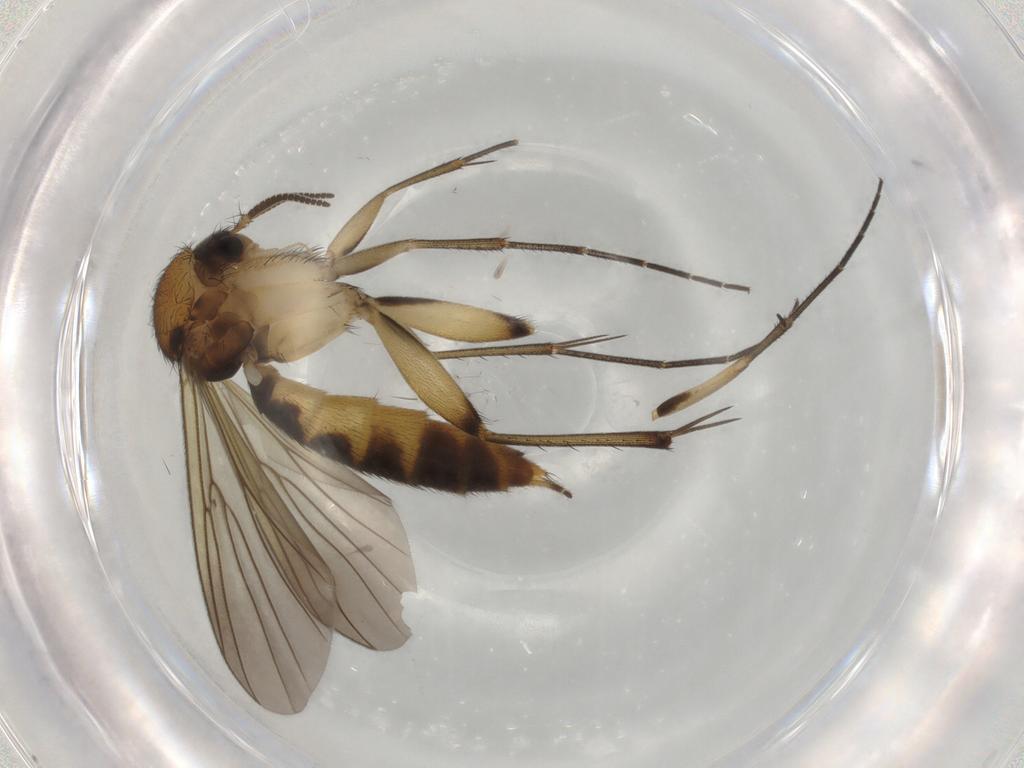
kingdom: Animalia
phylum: Arthropoda
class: Insecta
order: Diptera
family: Mycetophilidae
